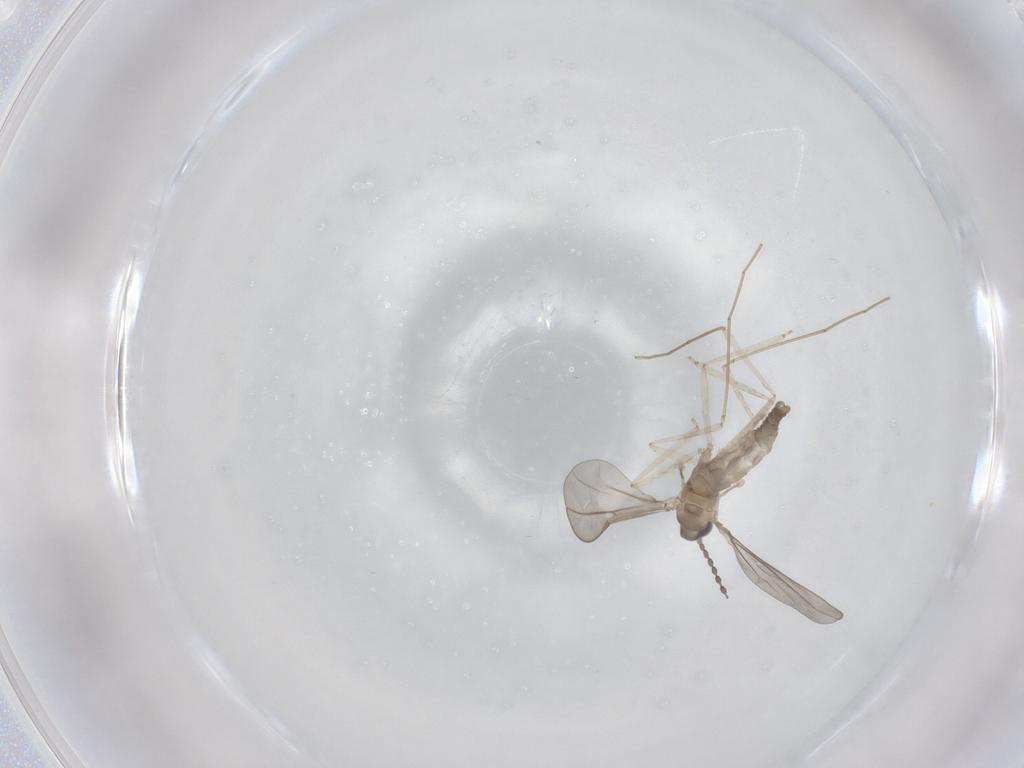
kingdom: Animalia
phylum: Arthropoda
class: Insecta
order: Diptera
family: Cecidomyiidae
